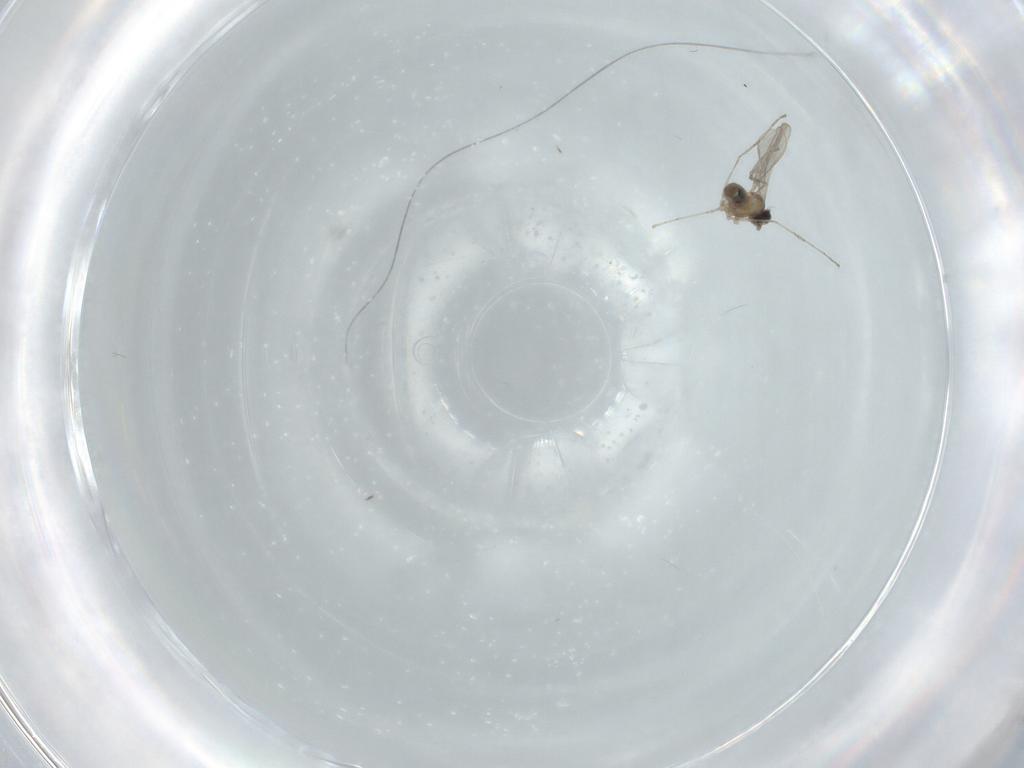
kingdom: Animalia
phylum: Arthropoda
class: Insecta
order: Diptera
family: Cecidomyiidae
